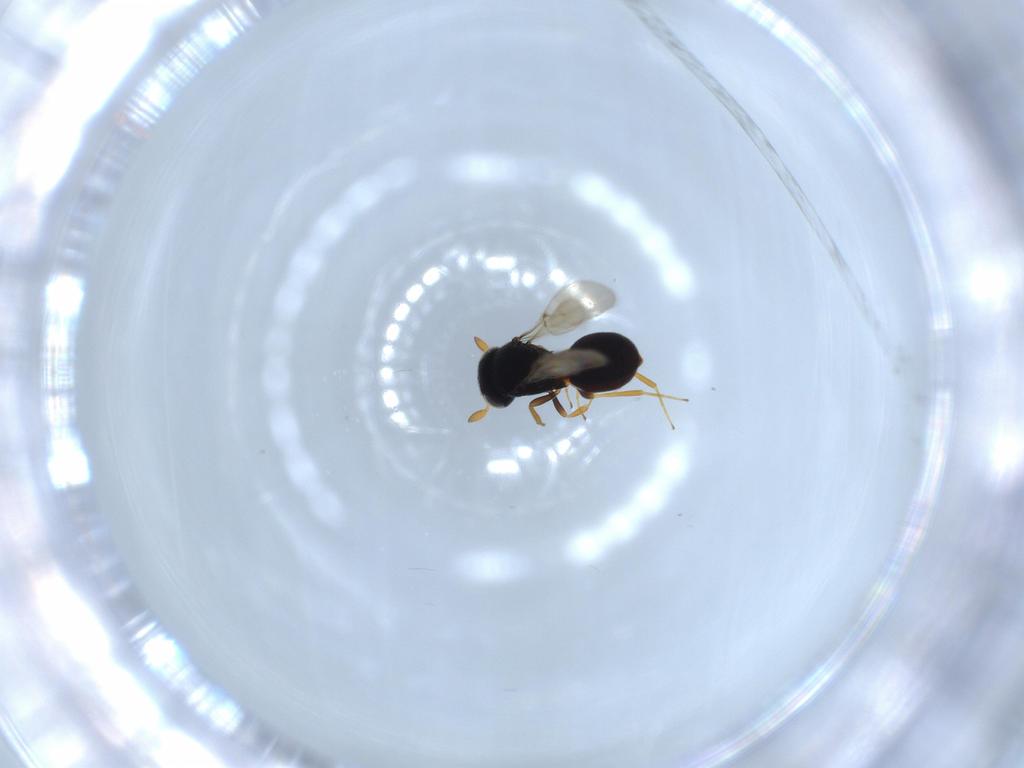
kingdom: Animalia
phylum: Arthropoda
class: Insecta
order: Hymenoptera
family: Scelionidae
